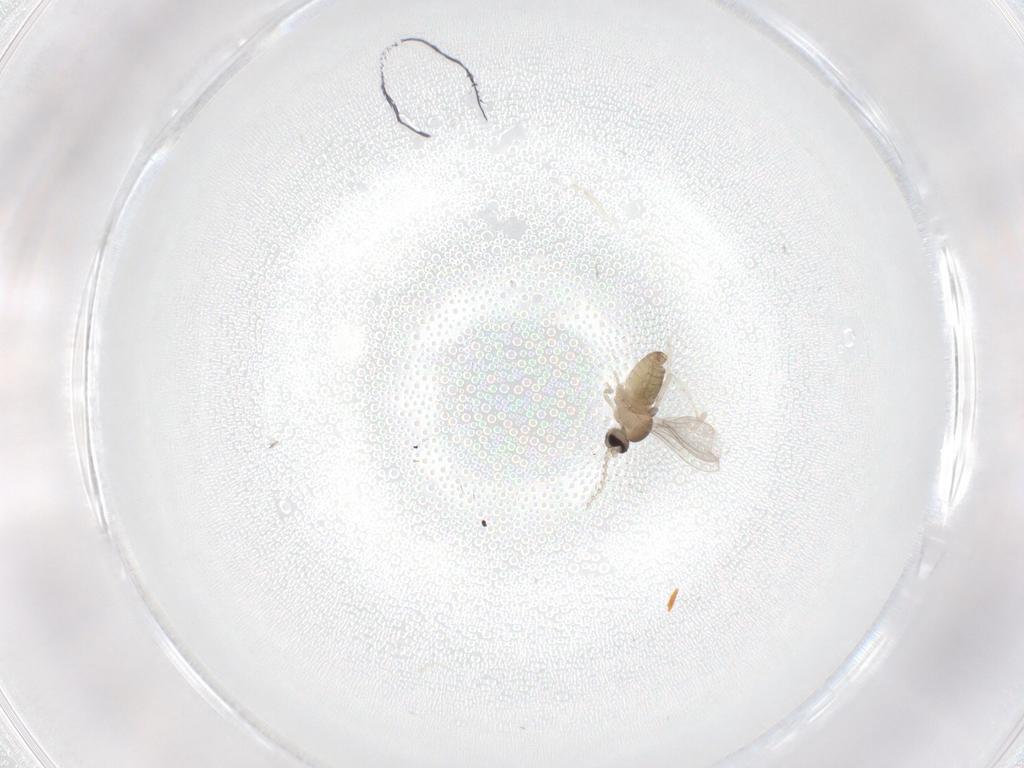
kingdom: Animalia
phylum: Arthropoda
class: Insecta
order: Diptera
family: Cecidomyiidae
